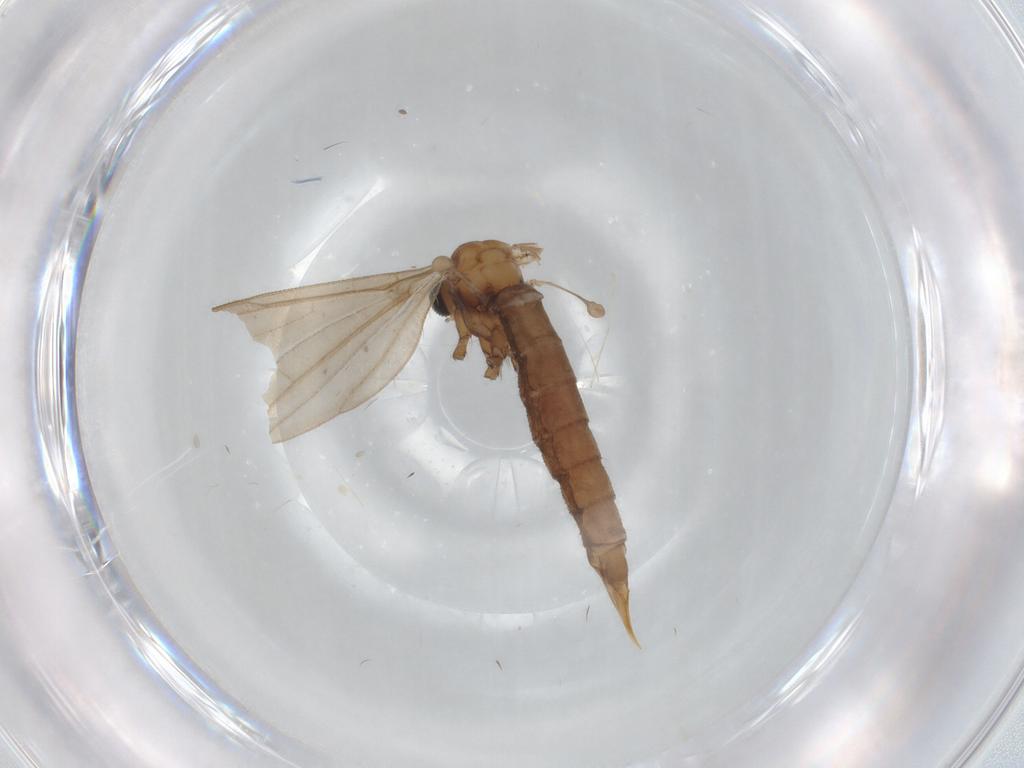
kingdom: Animalia
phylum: Arthropoda
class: Insecta
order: Diptera
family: Limoniidae
